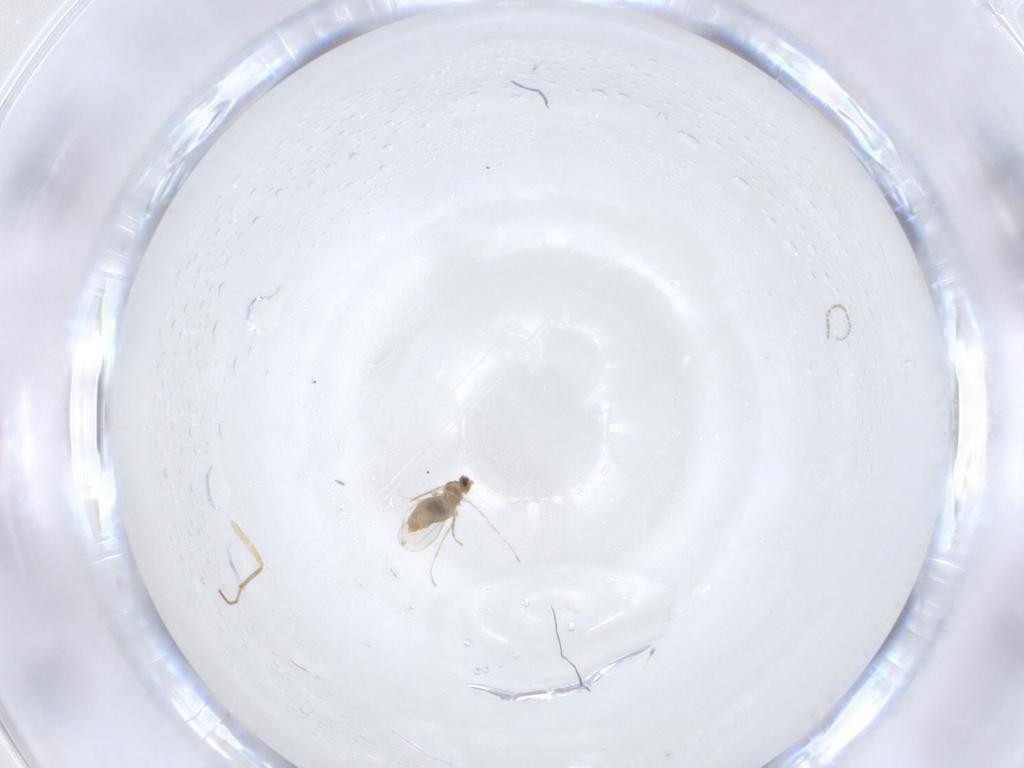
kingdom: Animalia
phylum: Arthropoda
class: Insecta
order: Diptera
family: Cecidomyiidae
